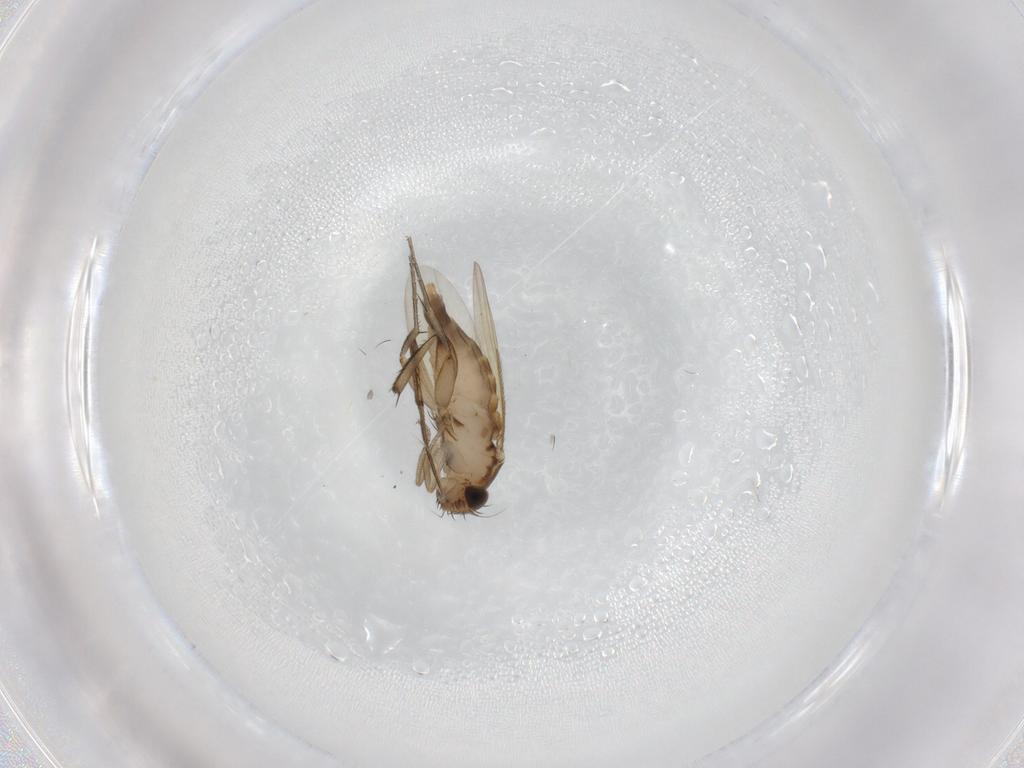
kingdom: Animalia
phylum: Arthropoda
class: Insecta
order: Diptera
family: Phoridae
